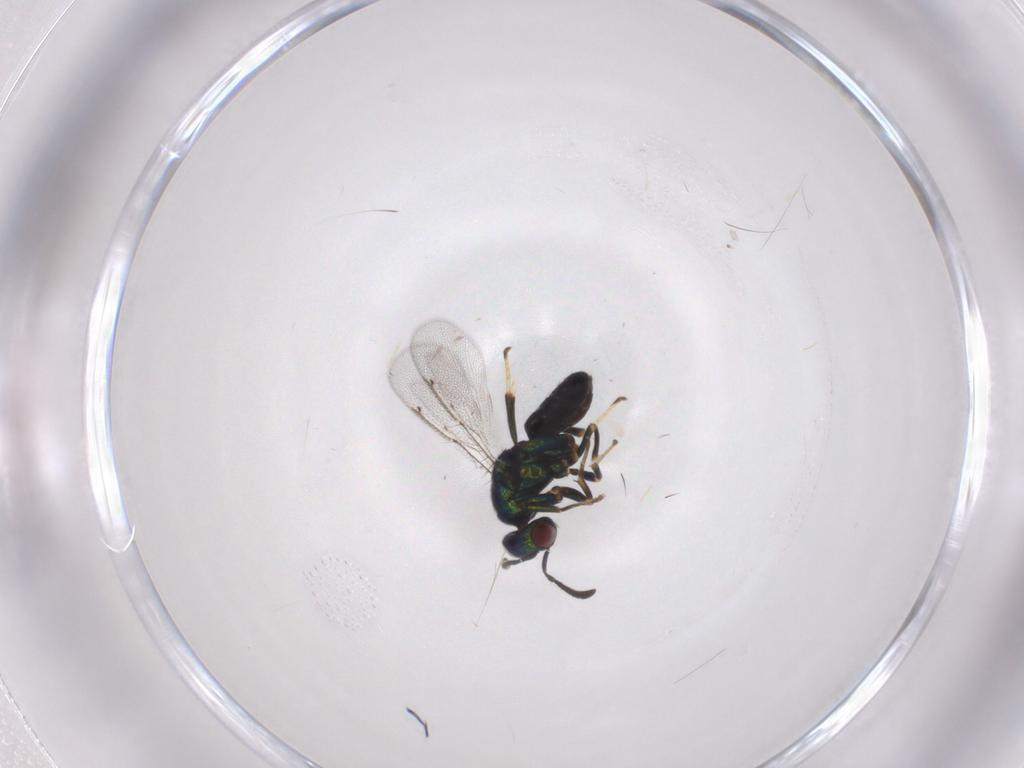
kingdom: Animalia
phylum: Arthropoda
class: Insecta
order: Hymenoptera
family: Ormyridae
